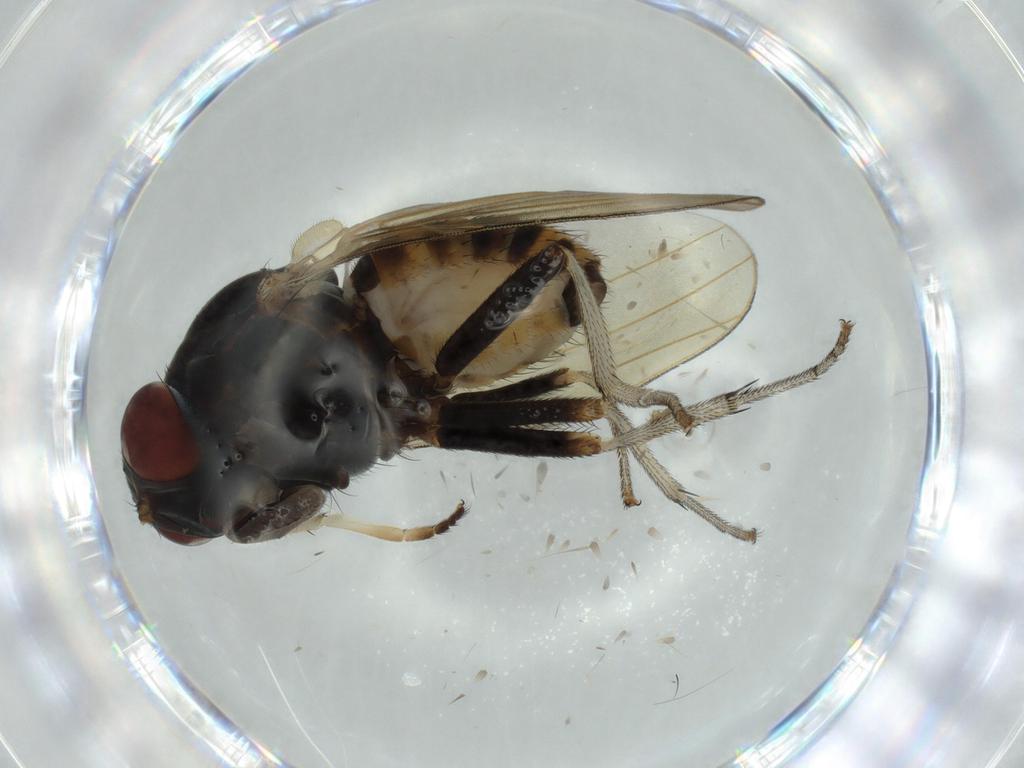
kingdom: Animalia
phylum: Arthropoda
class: Insecta
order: Diptera
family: Lauxaniidae
